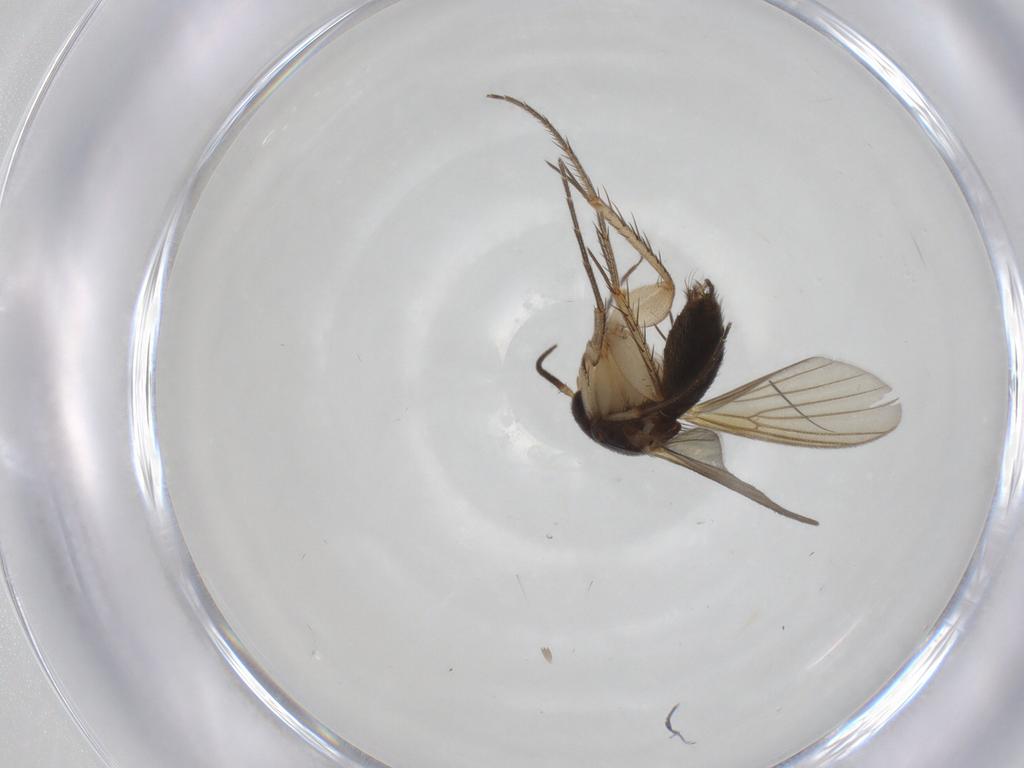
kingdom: Animalia
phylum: Arthropoda
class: Insecta
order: Diptera
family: Mycetophilidae
